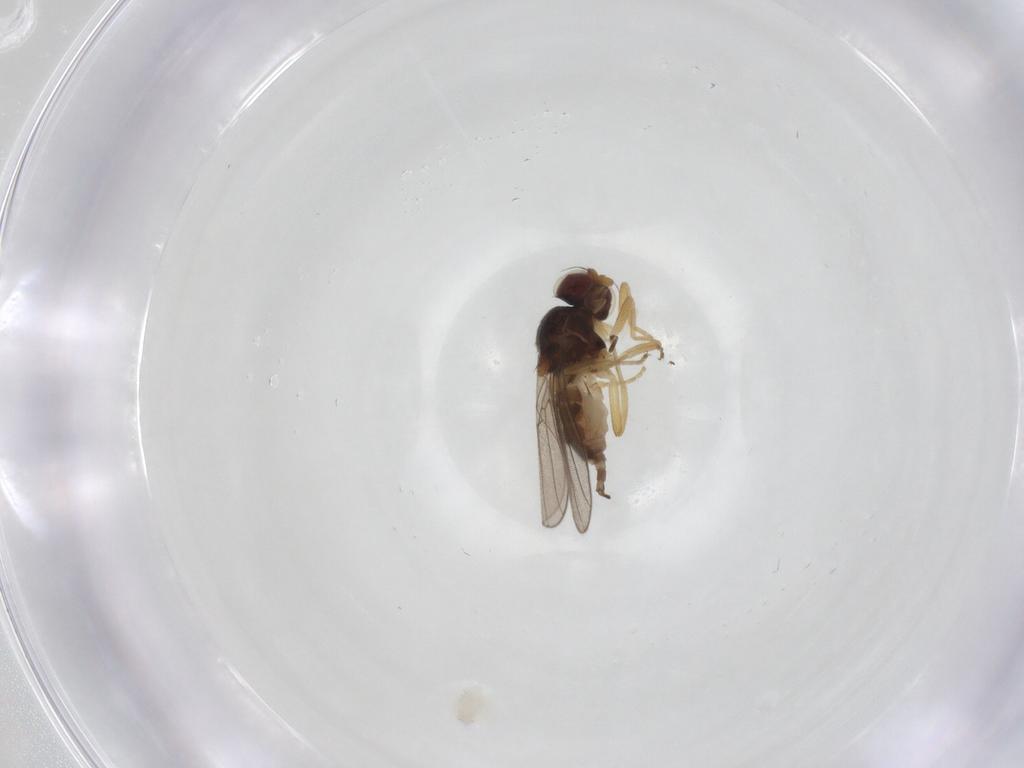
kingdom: Animalia
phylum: Arthropoda
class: Insecta
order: Diptera
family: Chloropidae
